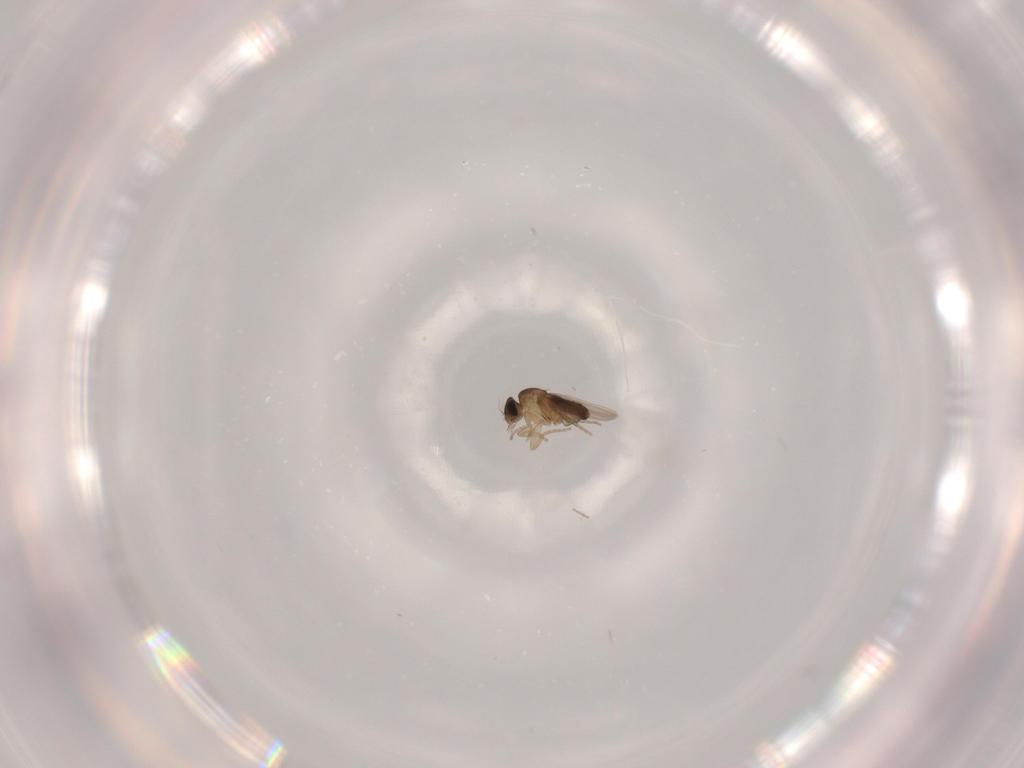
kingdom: Animalia
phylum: Arthropoda
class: Insecta
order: Diptera
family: Phoridae
